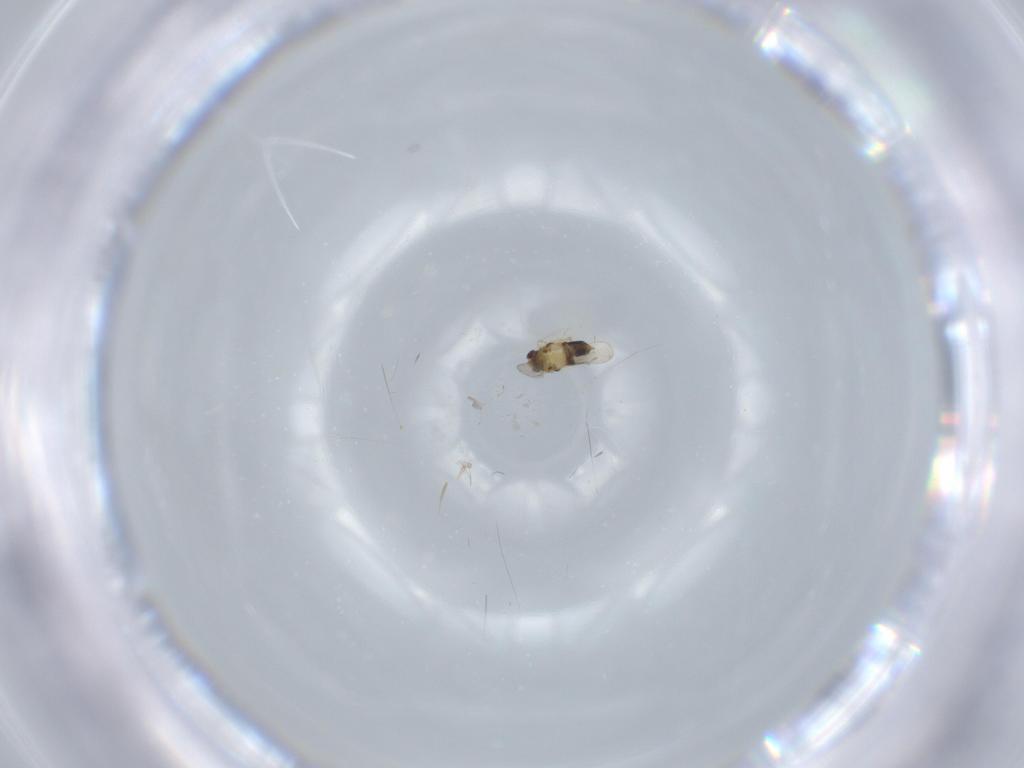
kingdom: Animalia
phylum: Arthropoda
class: Insecta
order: Hymenoptera
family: Aphelinidae
